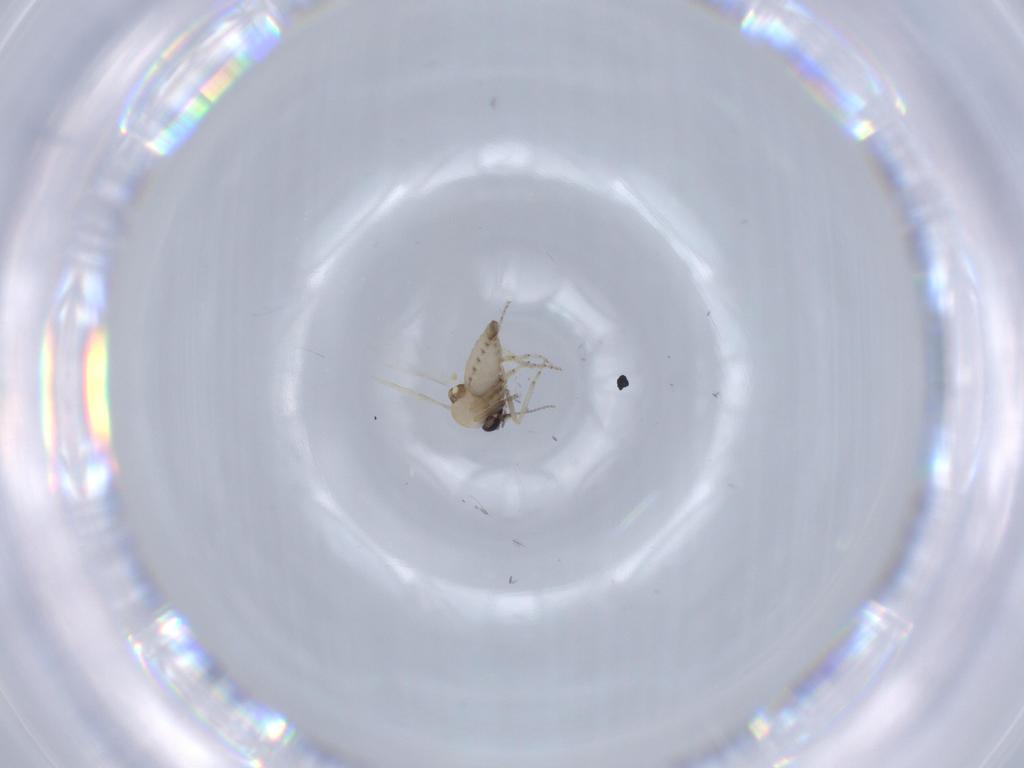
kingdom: Animalia
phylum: Arthropoda
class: Insecta
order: Diptera
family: Ceratopogonidae
